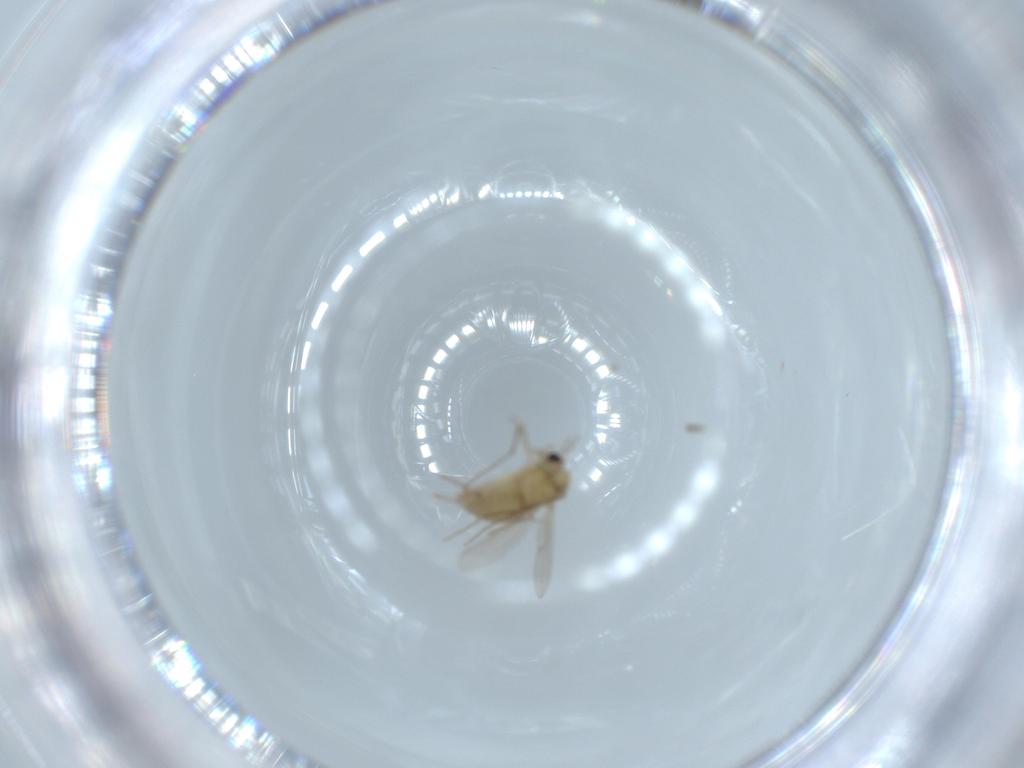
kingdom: Animalia
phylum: Arthropoda
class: Insecta
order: Diptera
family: Chironomidae
